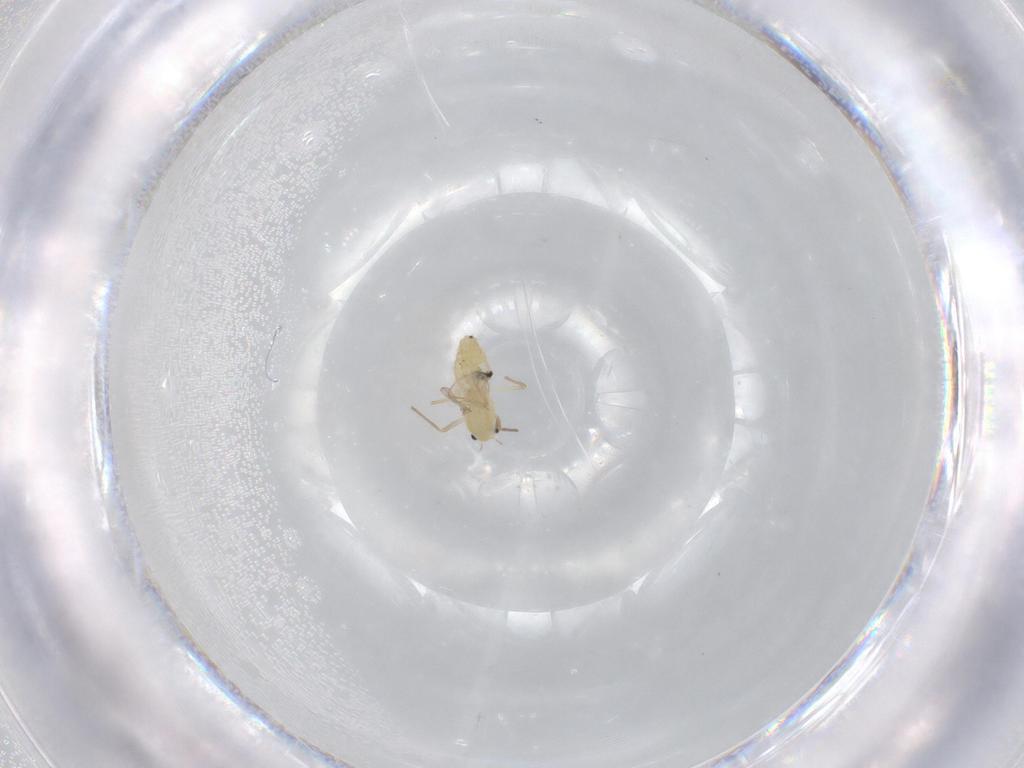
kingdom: Animalia
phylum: Arthropoda
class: Insecta
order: Diptera
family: Chironomidae
